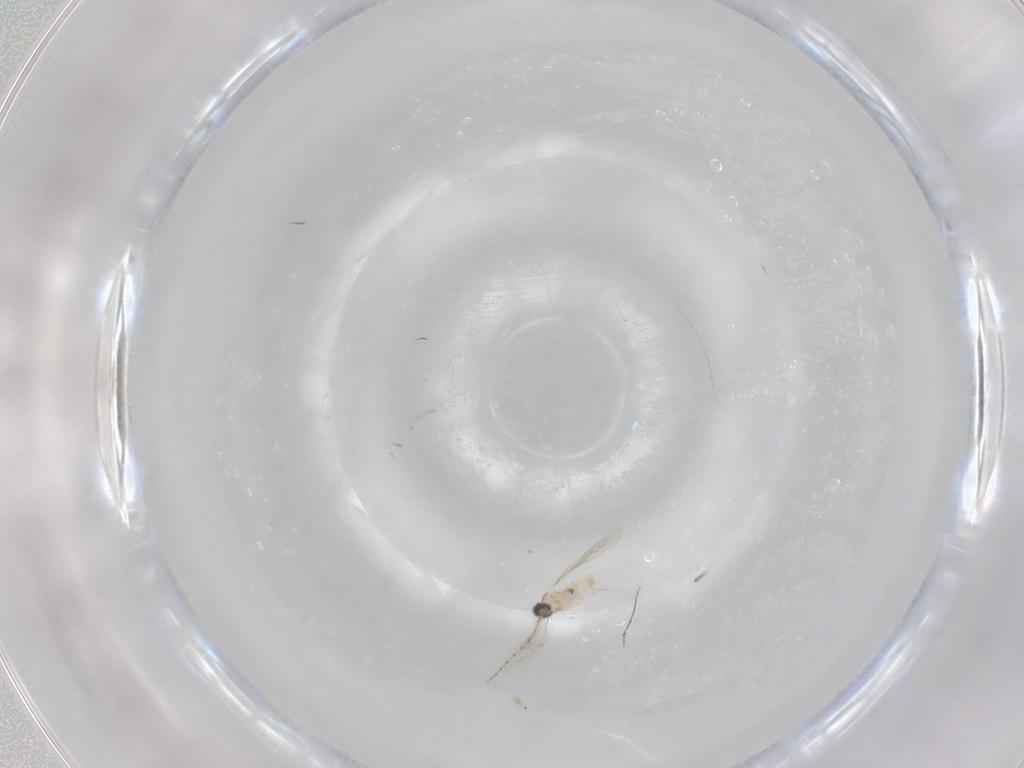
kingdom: Animalia
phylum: Arthropoda
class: Insecta
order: Diptera
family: Cecidomyiidae
